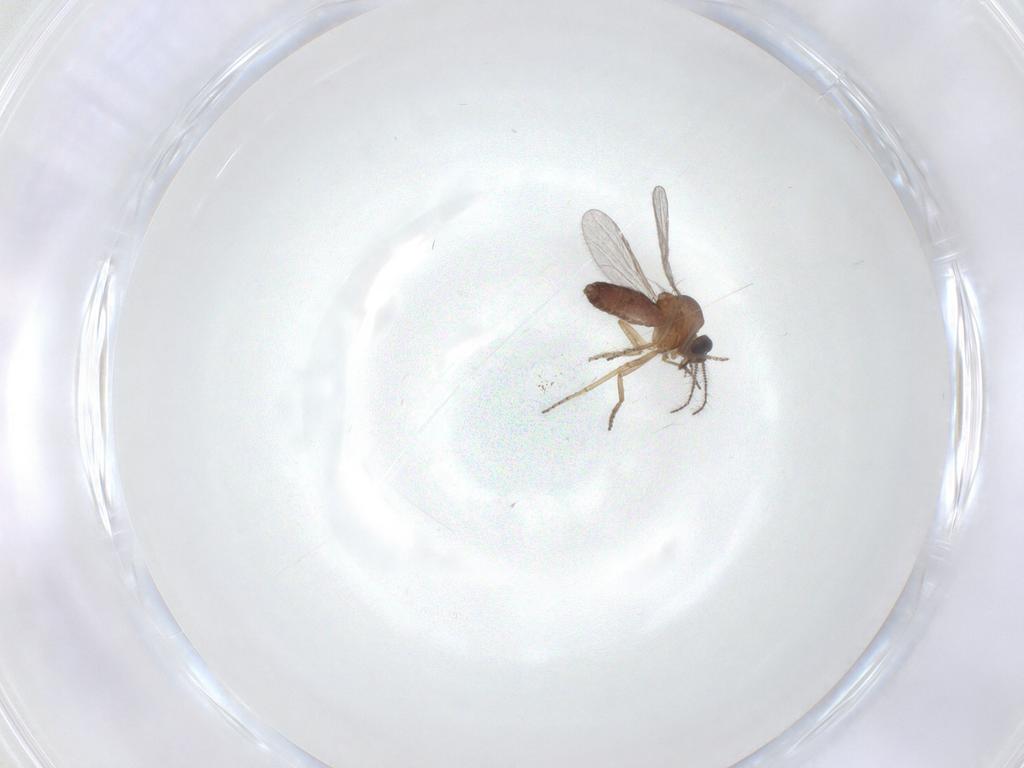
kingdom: Animalia
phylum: Arthropoda
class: Insecta
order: Diptera
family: Ceratopogonidae
